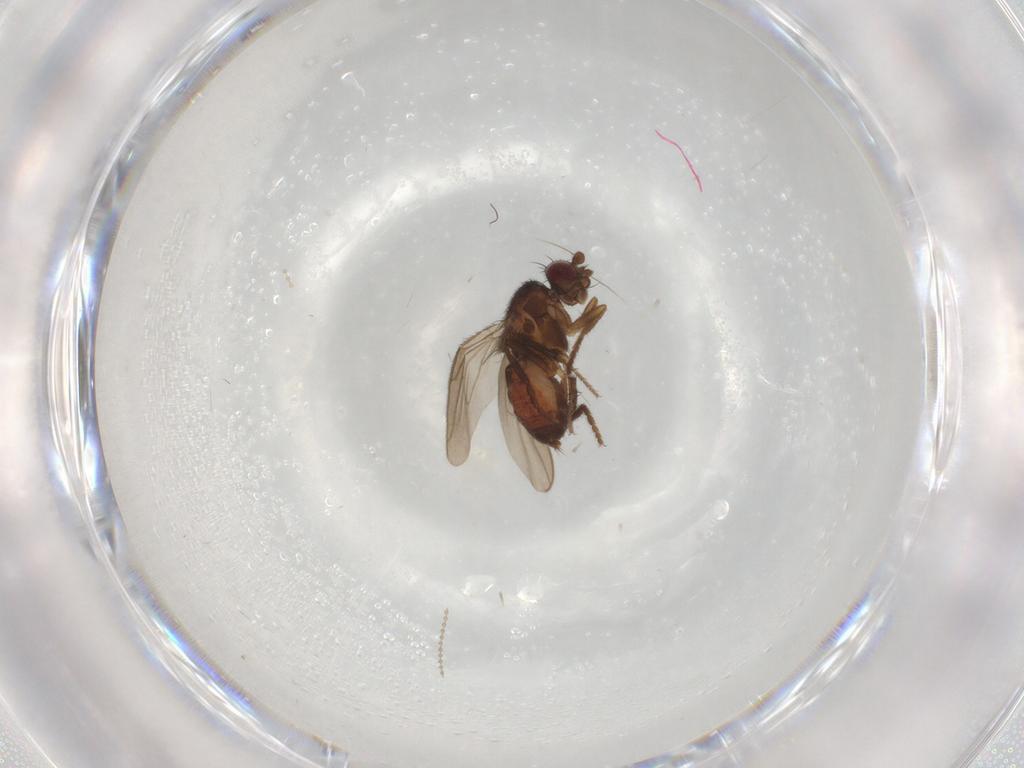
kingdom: Animalia
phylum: Arthropoda
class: Insecta
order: Diptera
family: Sphaeroceridae
